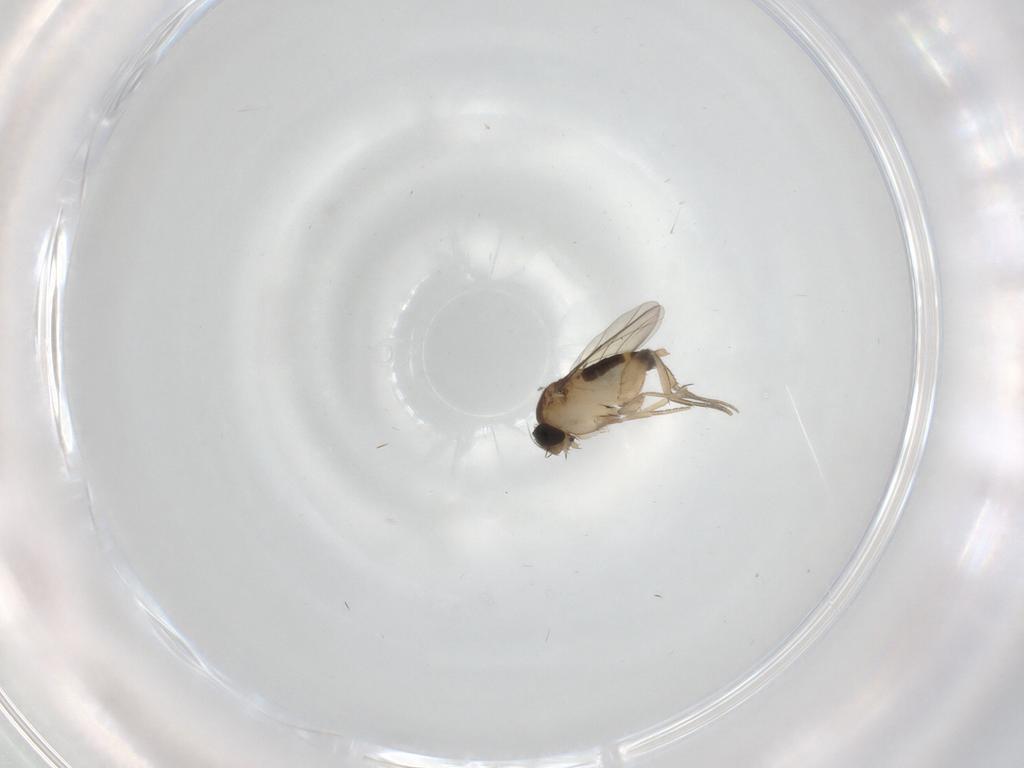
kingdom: Animalia
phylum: Arthropoda
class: Insecta
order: Diptera
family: Phoridae
